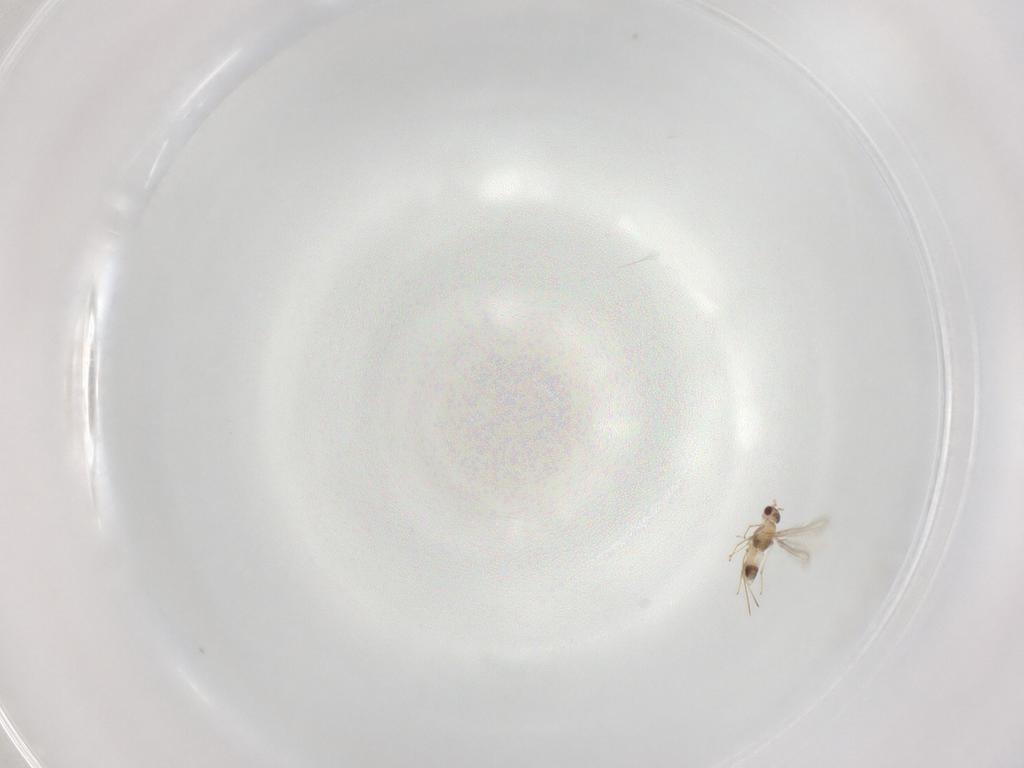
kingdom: Animalia
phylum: Arthropoda
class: Insecta
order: Hymenoptera
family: Mymaridae
